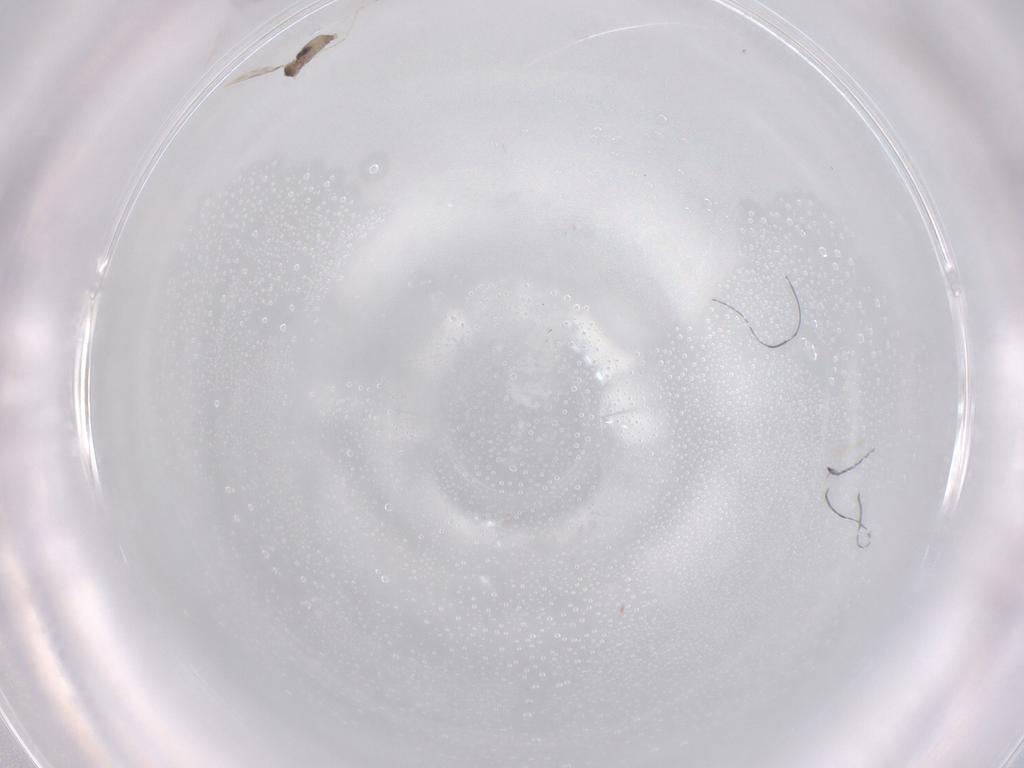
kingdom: Animalia
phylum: Arthropoda
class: Insecta
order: Diptera
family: Cecidomyiidae
